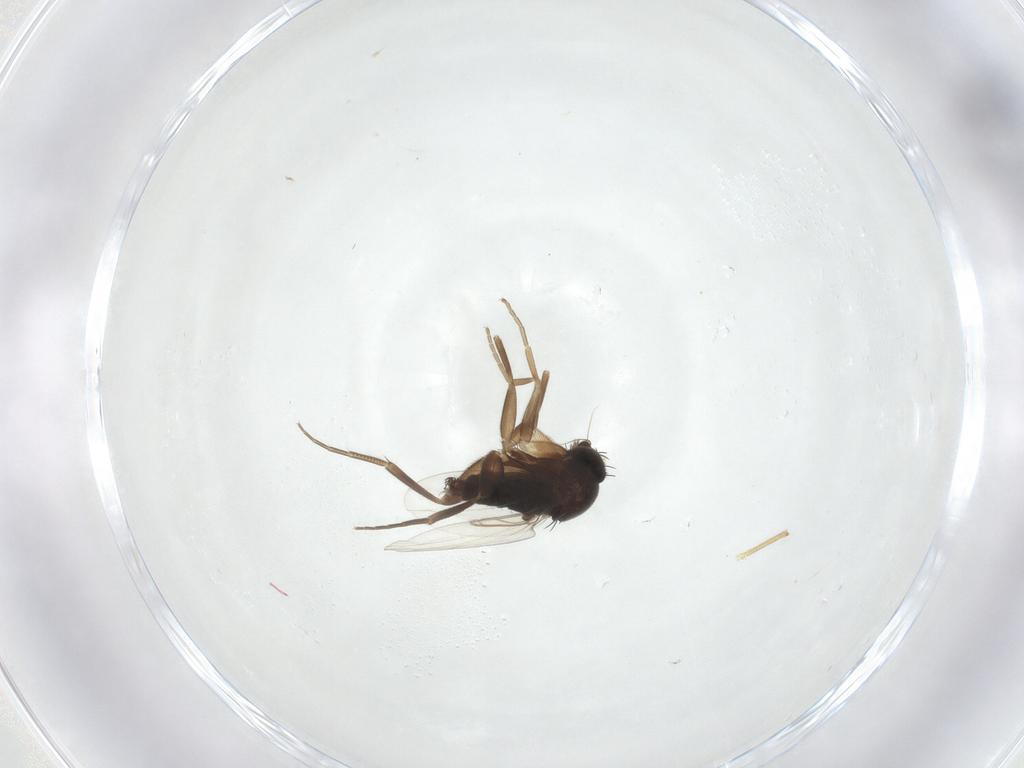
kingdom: Animalia
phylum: Arthropoda
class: Insecta
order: Diptera
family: Phoridae
